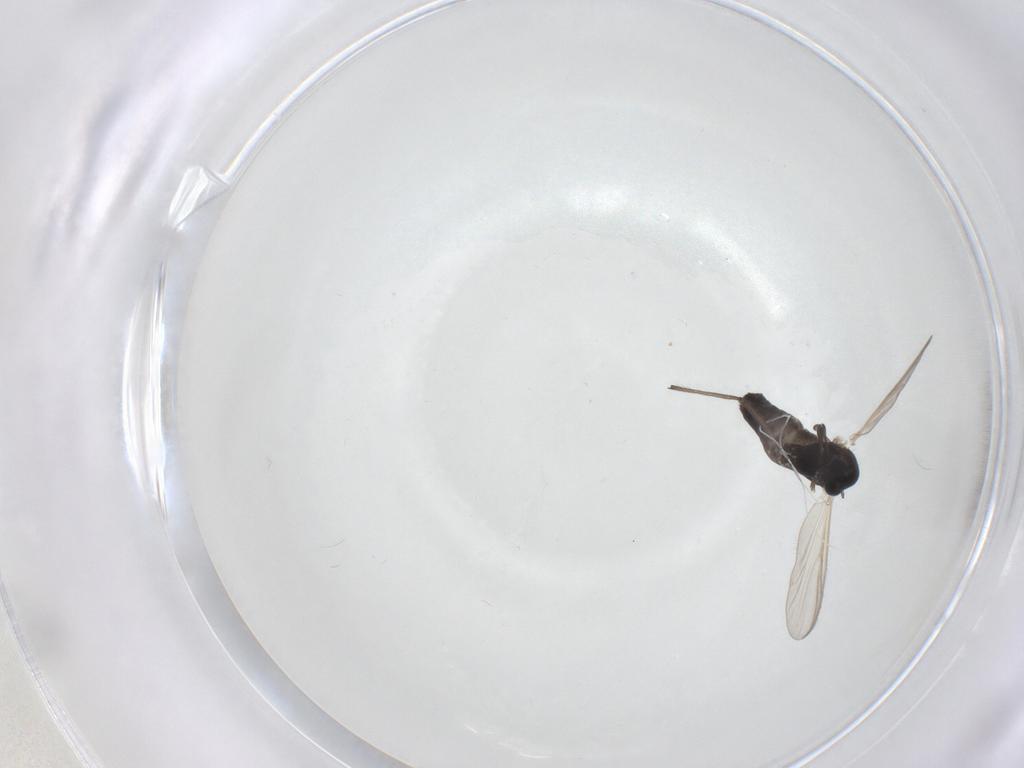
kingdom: Animalia
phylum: Arthropoda
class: Insecta
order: Diptera
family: Chironomidae
